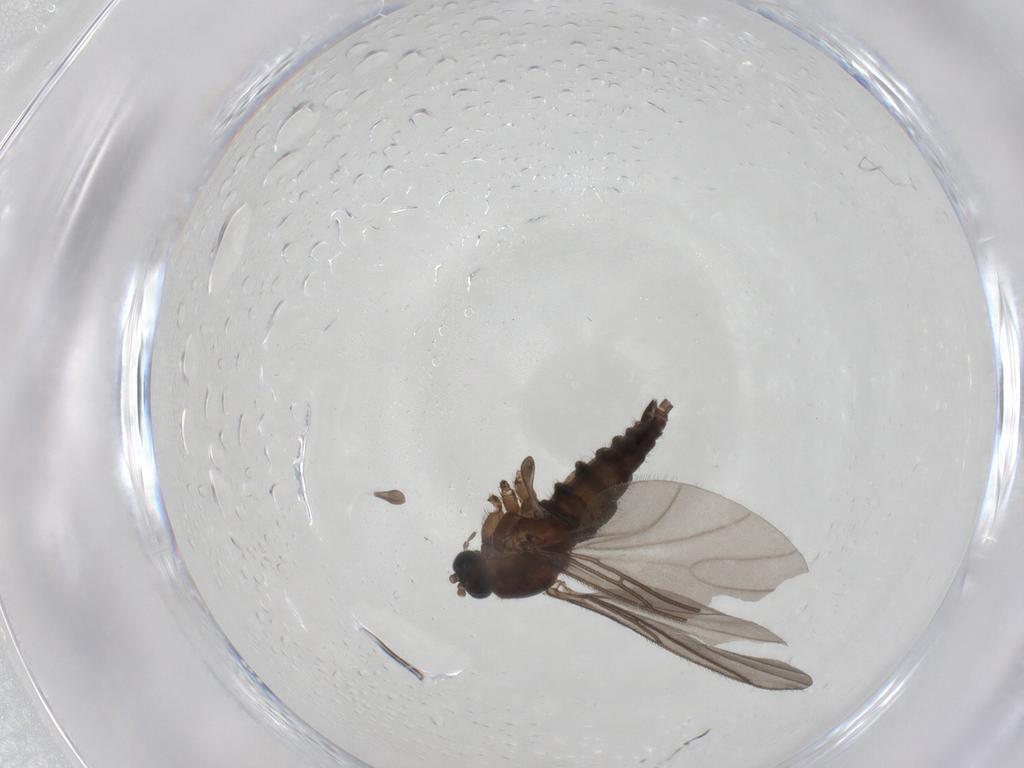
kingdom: Animalia
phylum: Arthropoda
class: Insecta
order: Diptera
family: Sciaridae
